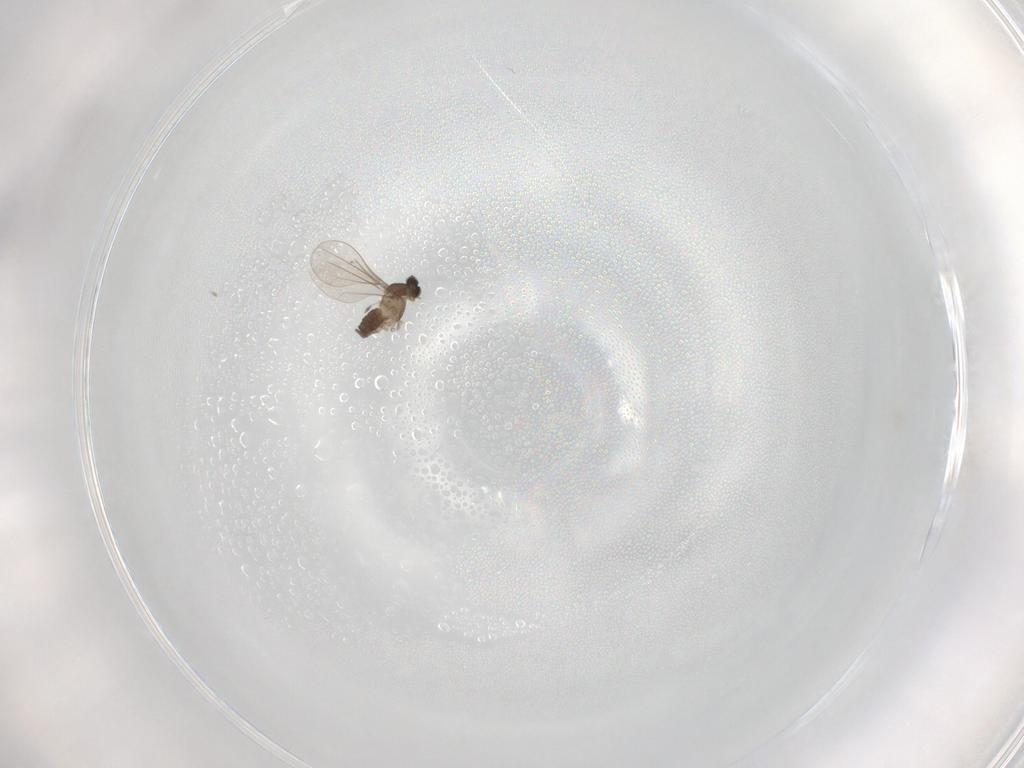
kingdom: Animalia
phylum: Arthropoda
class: Insecta
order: Diptera
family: Cecidomyiidae
